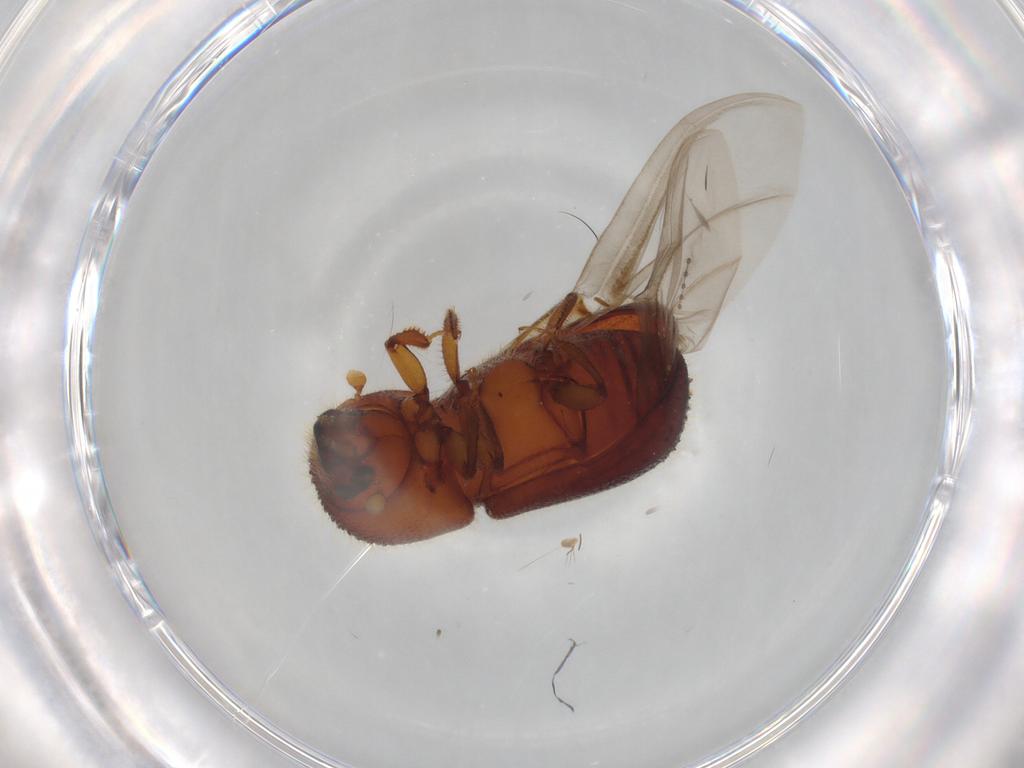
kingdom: Animalia
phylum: Arthropoda
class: Insecta
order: Coleoptera
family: Curculionidae
